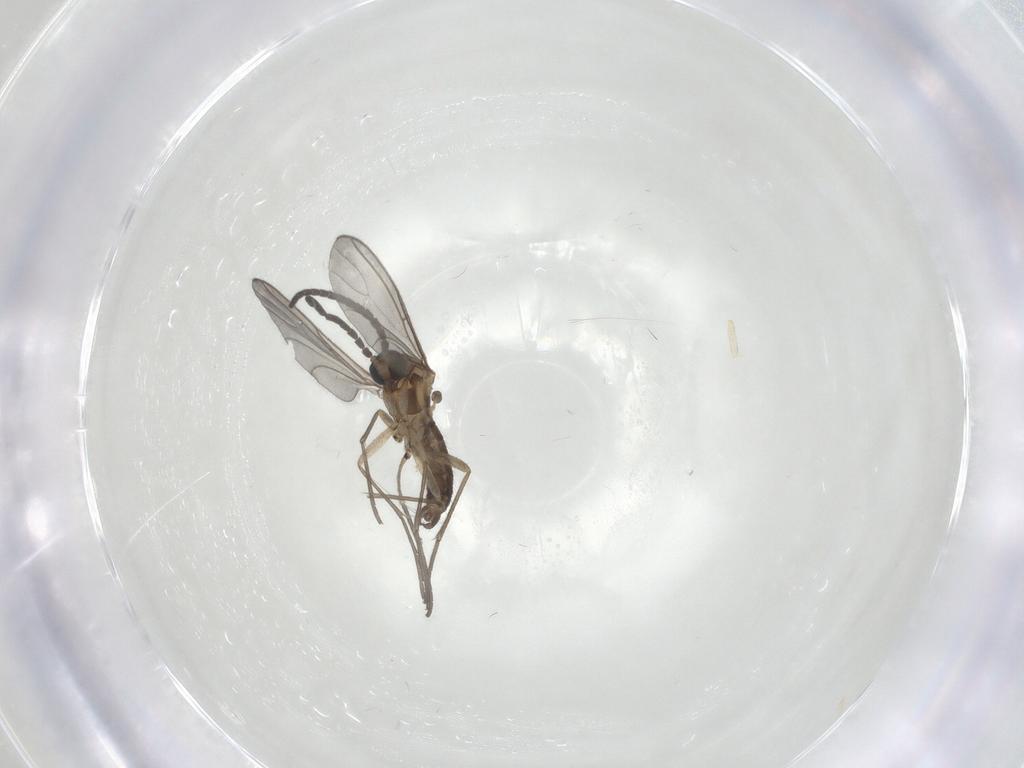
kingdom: Animalia
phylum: Arthropoda
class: Insecta
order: Diptera
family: Sciaridae
